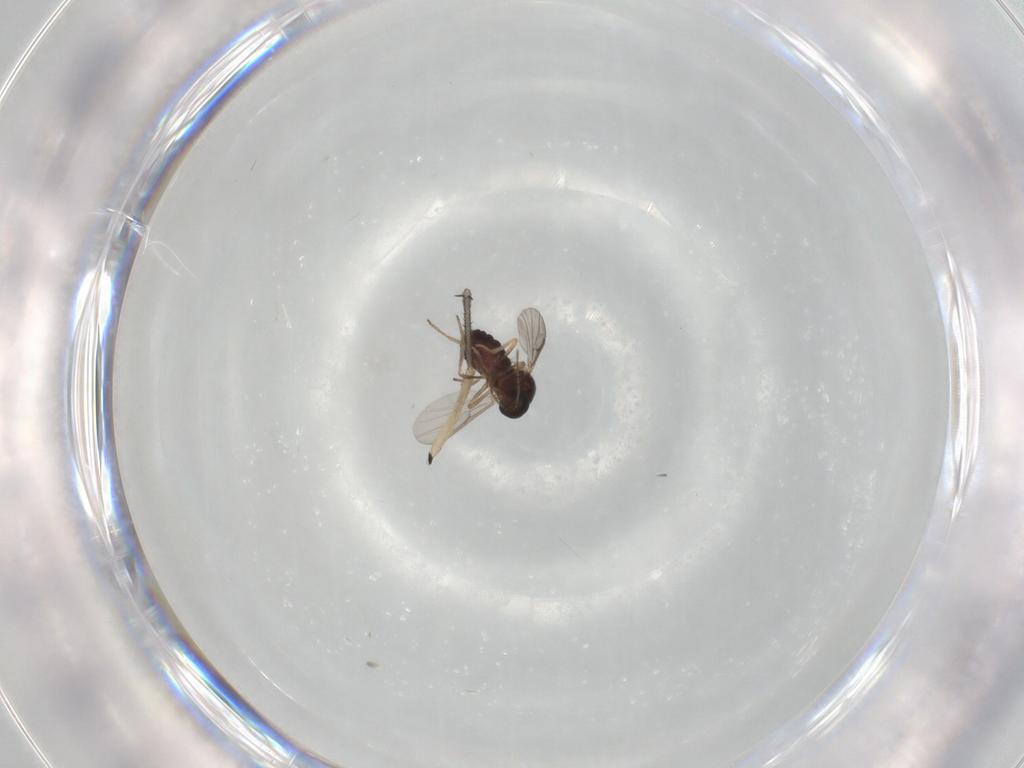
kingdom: Animalia
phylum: Arthropoda
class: Insecta
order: Diptera
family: Ceratopogonidae
